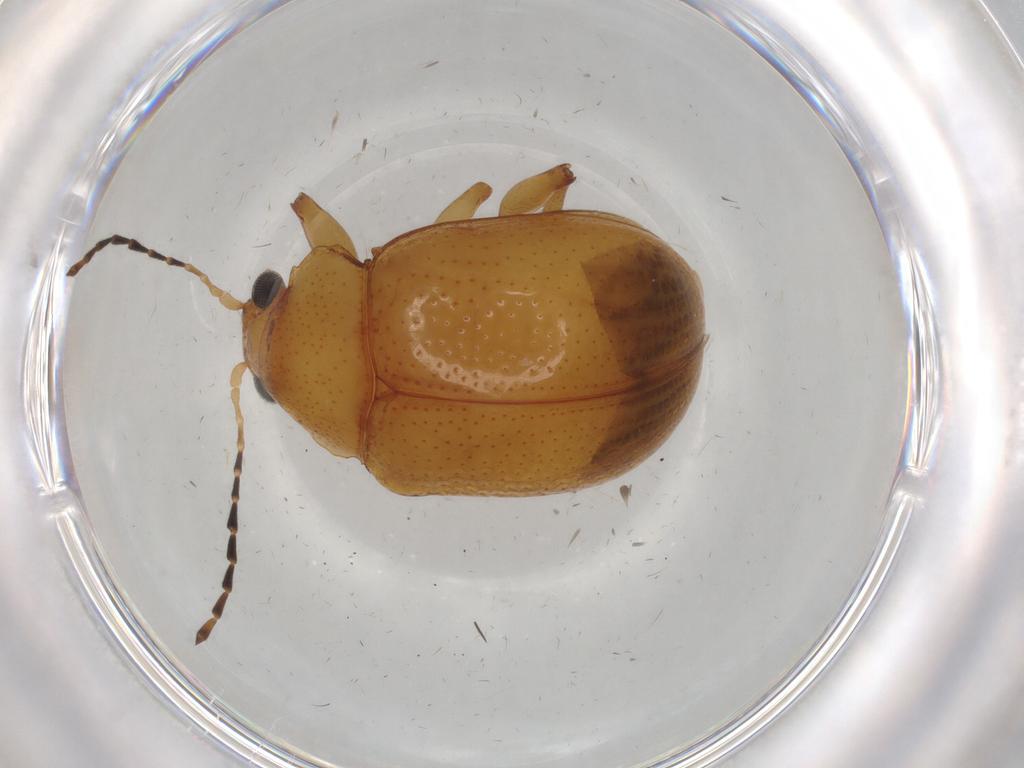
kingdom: Animalia
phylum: Arthropoda
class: Insecta
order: Coleoptera
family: Chrysomelidae
